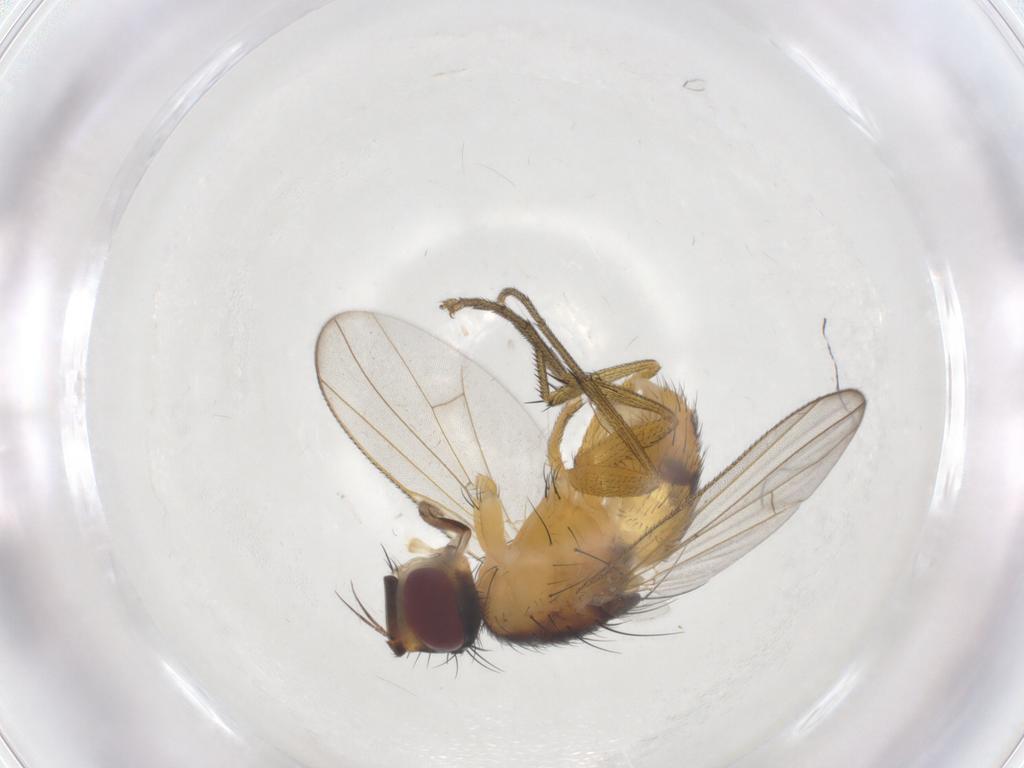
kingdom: Animalia
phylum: Arthropoda
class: Insecta
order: Diptera
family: Muscidae
